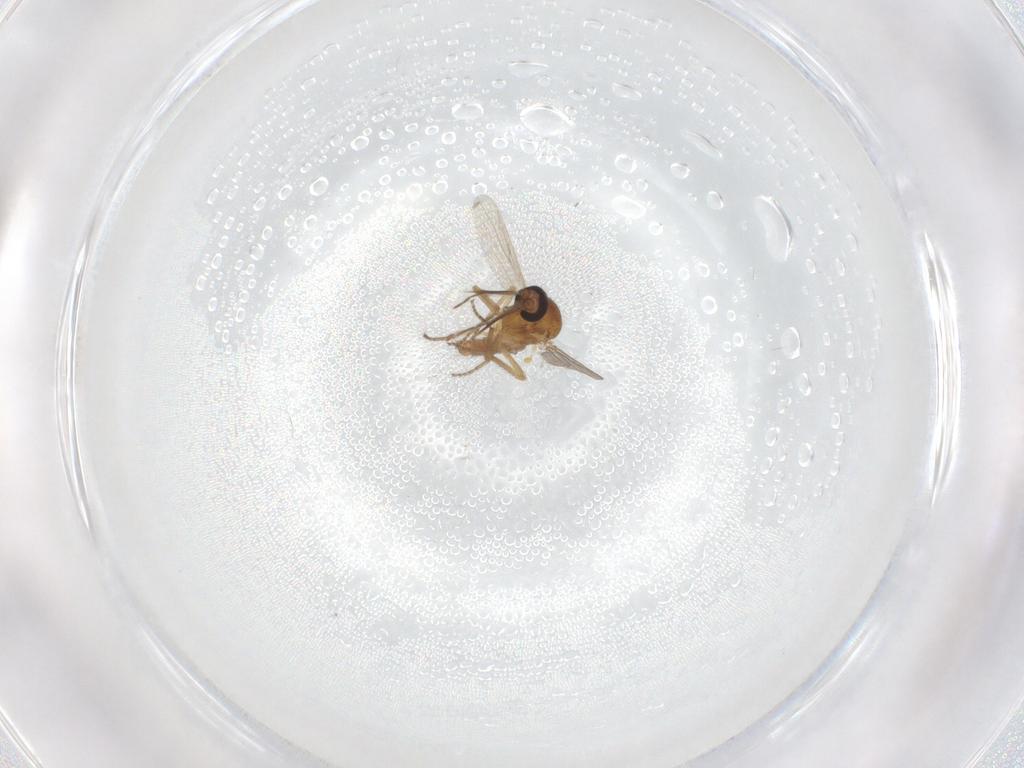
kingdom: Animalia
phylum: Arthropoda
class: Insecta
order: Diptera
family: Ceratopogonidae
